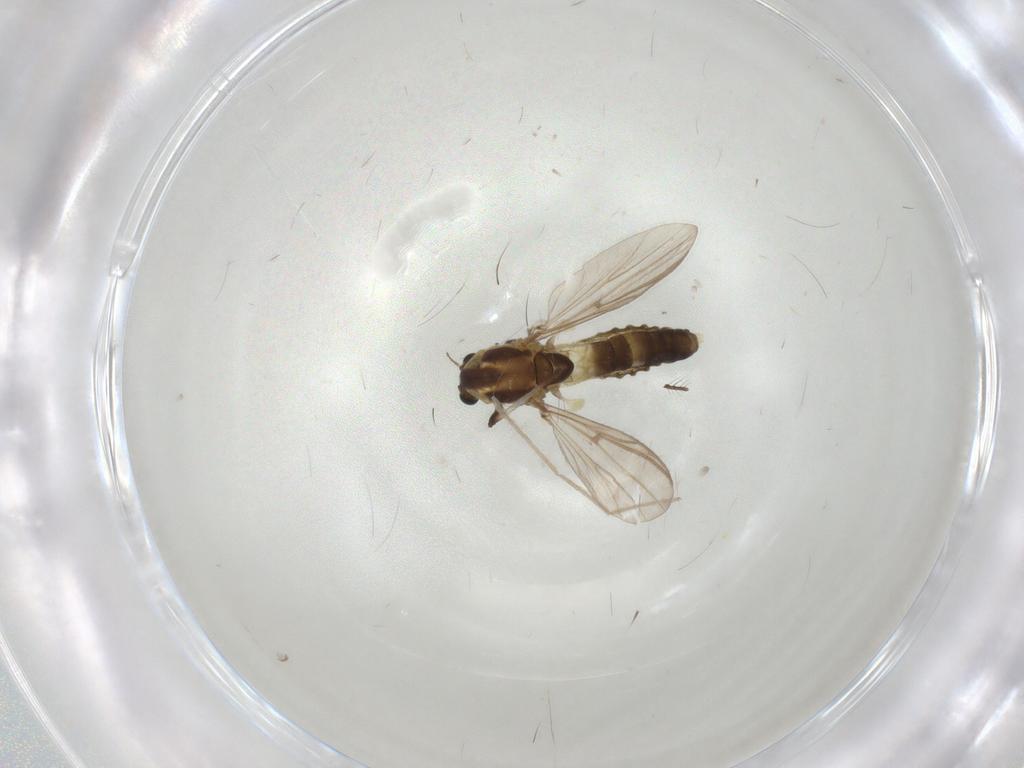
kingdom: Animalia
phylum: Arthropoda
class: Insecta
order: Diptera
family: Chironomidae
